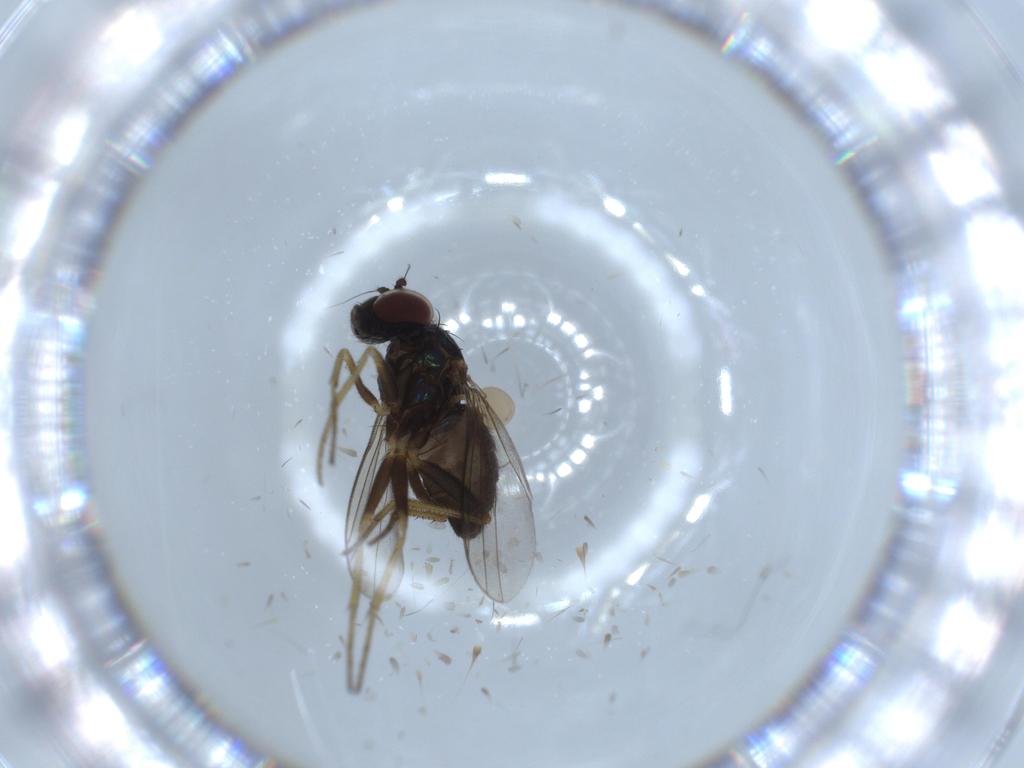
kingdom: Animalia
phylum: Arthropoda
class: Insecta
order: Diptera
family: Dolichopodidae
